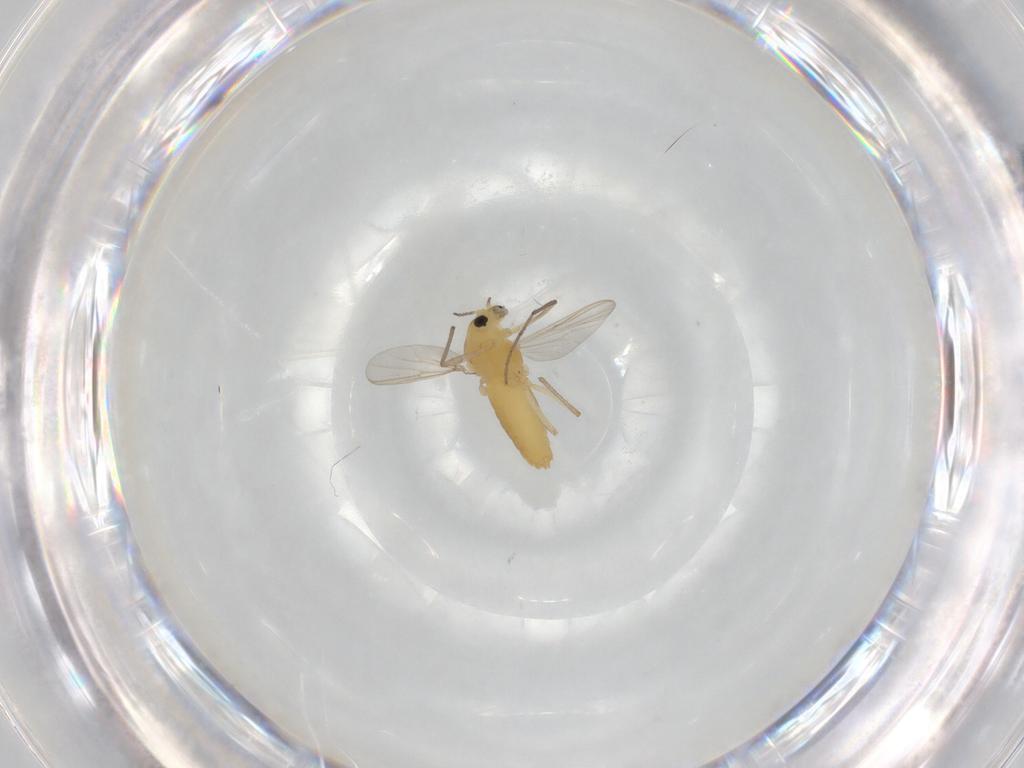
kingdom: Animalia
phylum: Arthropoda
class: Insecta
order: Diptera
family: Chironomidae
